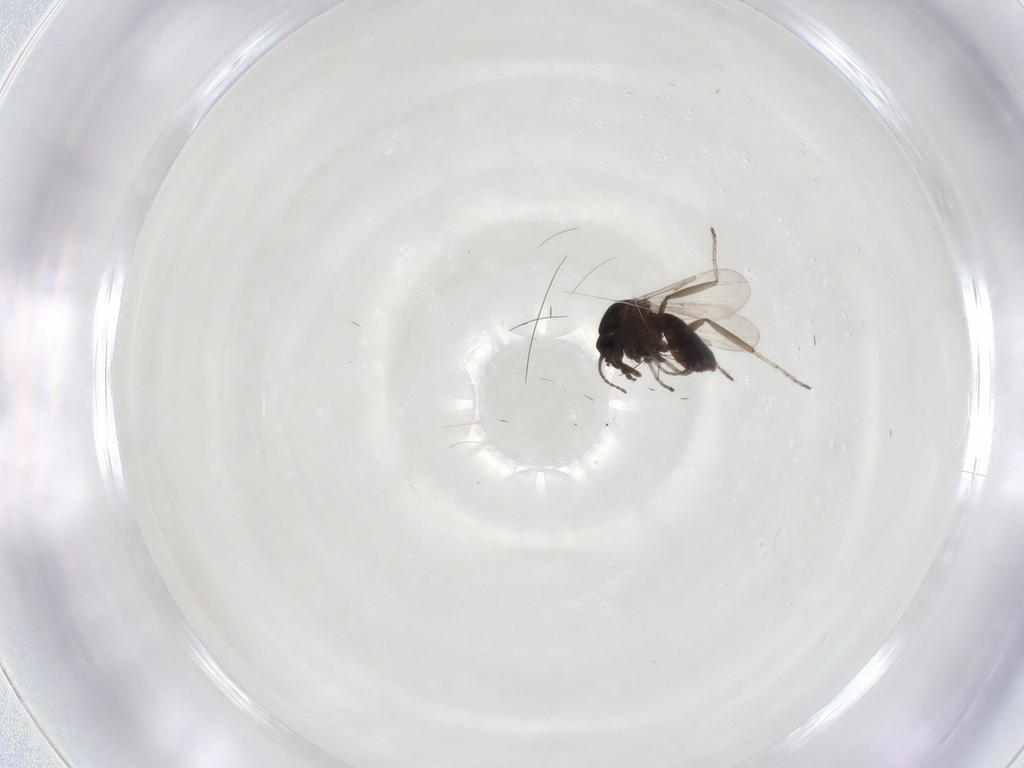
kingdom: Animalia
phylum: Arthropoda
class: Insecta
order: Diptera
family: Ceratopogonidae
